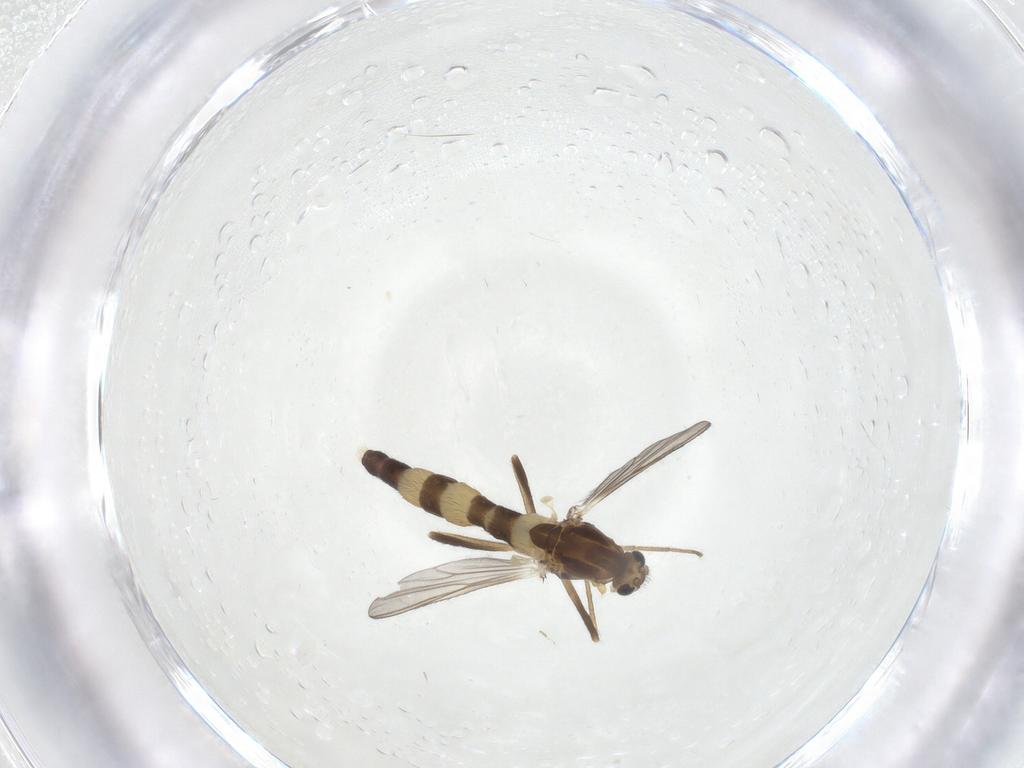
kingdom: Animalia
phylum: Arthropoda
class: Insecta
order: Diptera
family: Chironomidae
